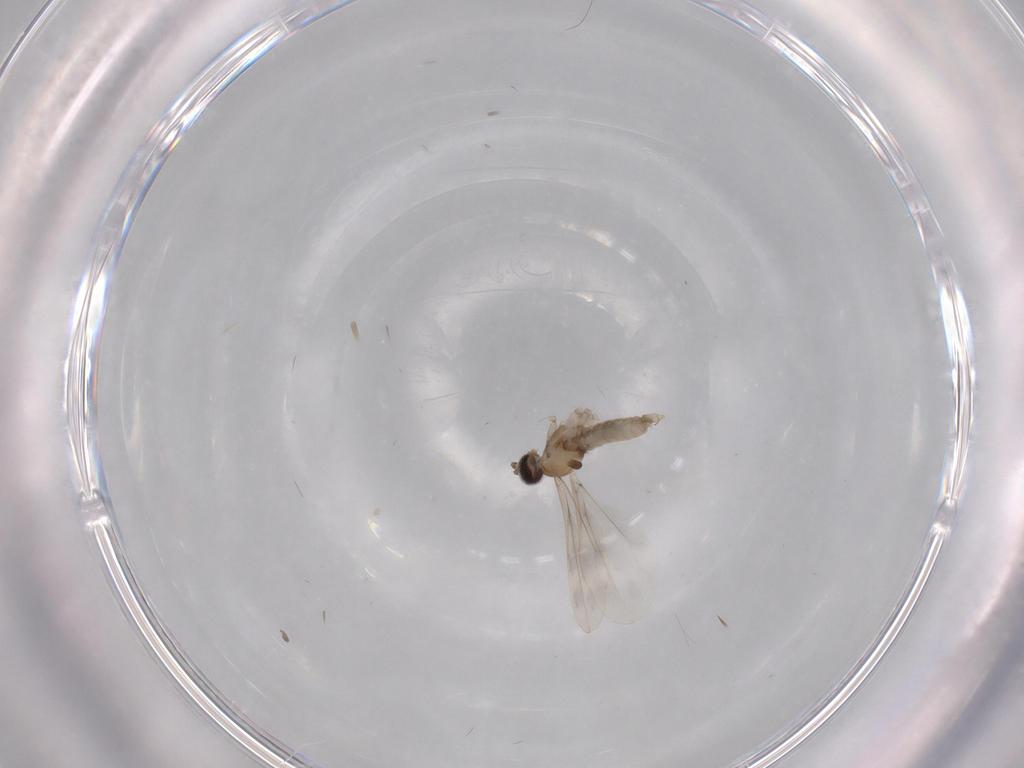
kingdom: Animalia
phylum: Arthropoda
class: Insecta
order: Diptera
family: Cecidomyiidae
